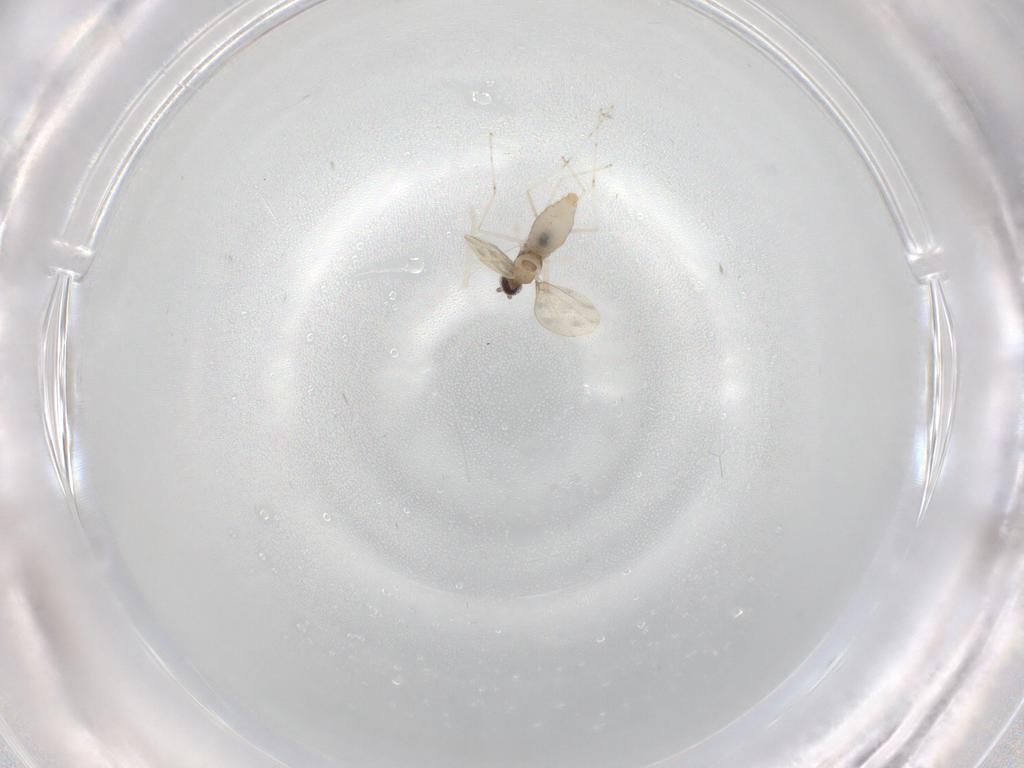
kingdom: Animalia
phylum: Arthropoda
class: Insecta
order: Diptera
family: Cecidomyiidae
